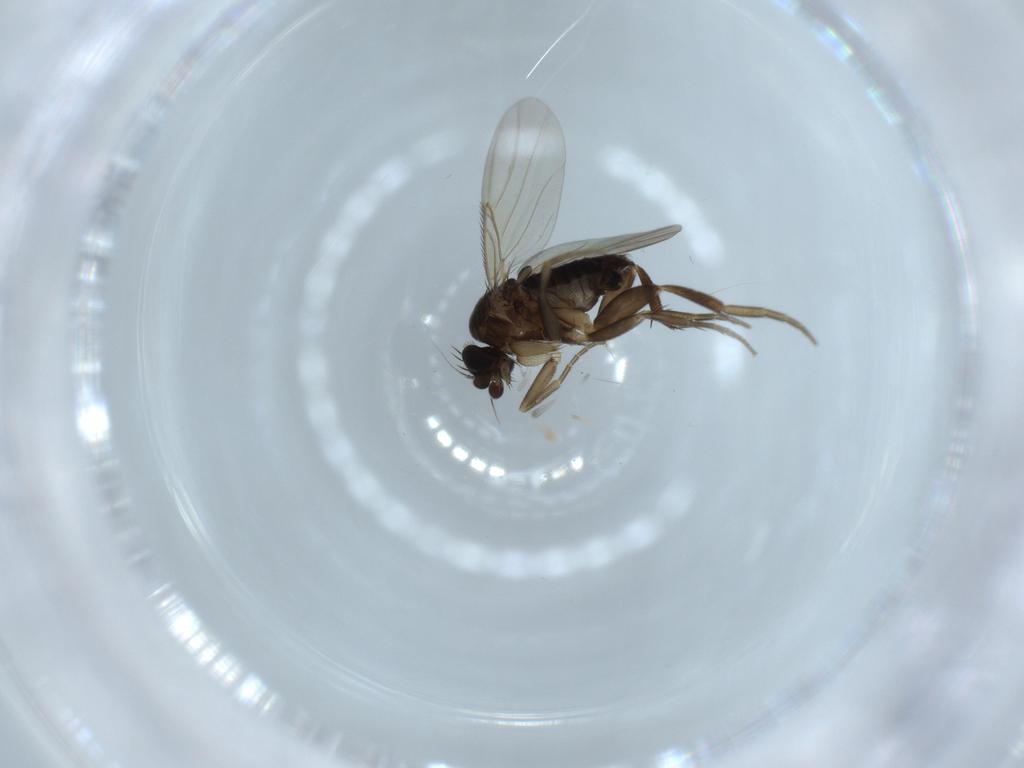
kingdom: Animalia
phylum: Arthropoda
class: Insecta
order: Diptera
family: Phoridae
